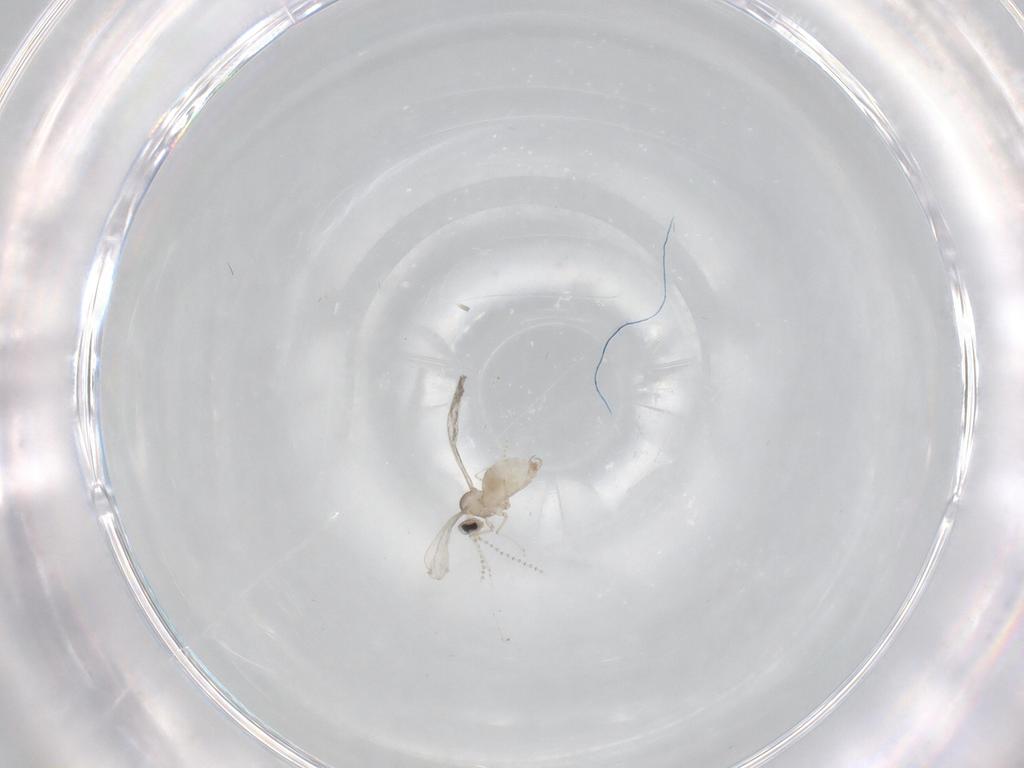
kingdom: Animalia
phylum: Arthropoda
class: Insecta
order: Diptera
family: Cecidomyiidae
